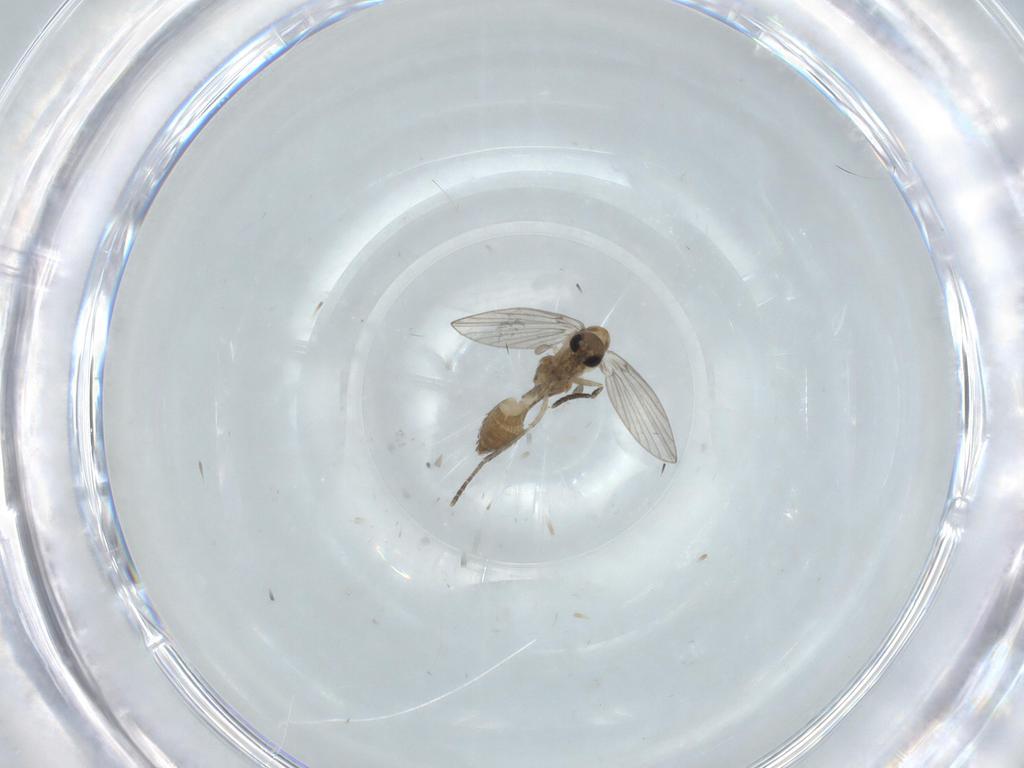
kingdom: Animalia
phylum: Arthropoda
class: Insecta
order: Diptera
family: Psychodidae
